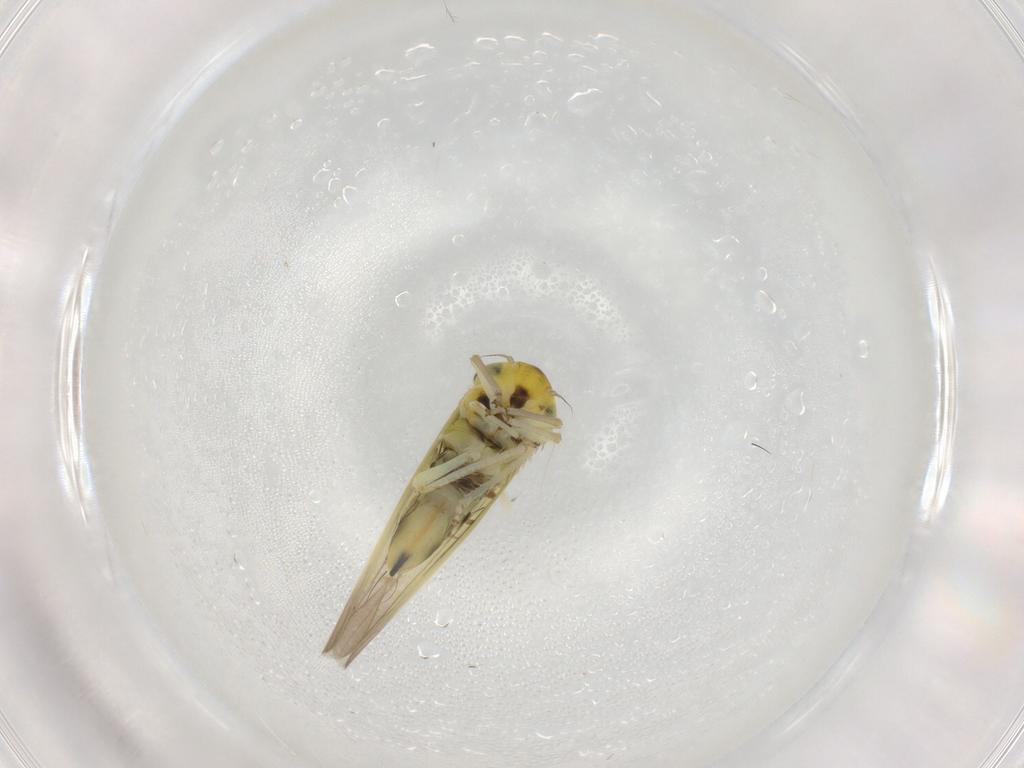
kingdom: Animalia
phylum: Arthropoda
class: Insecta
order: Hemiptera
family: Cicadellidae
